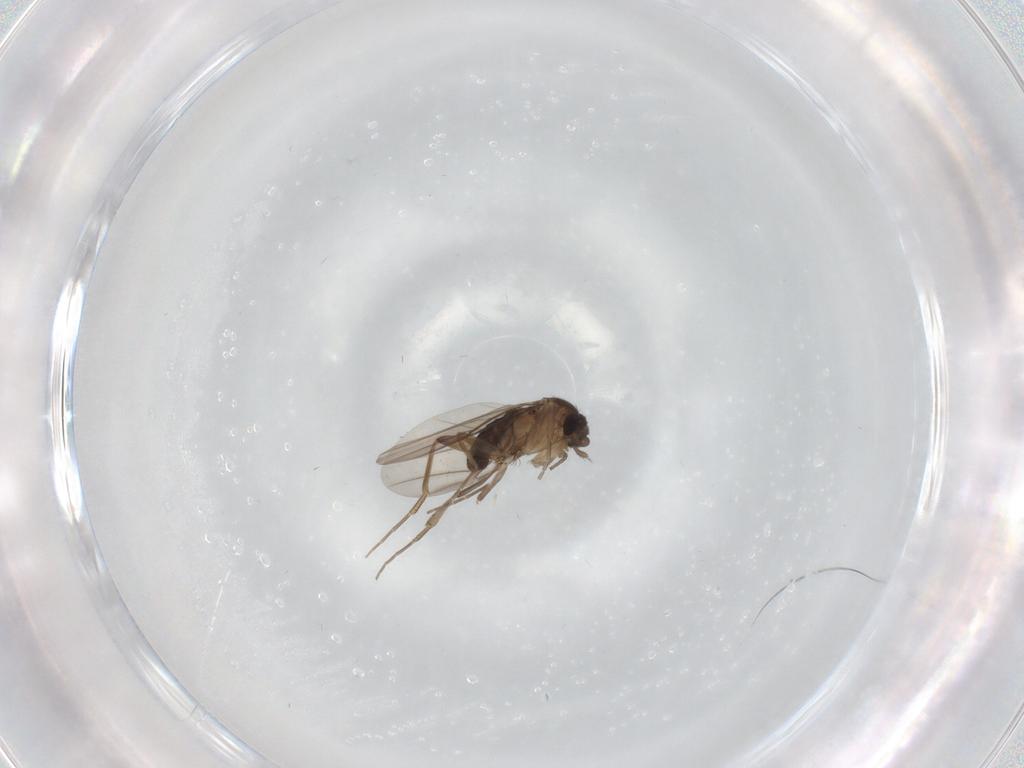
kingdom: Animalia
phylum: Arthropoda
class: Insecta
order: Diptera
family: Phoridae
